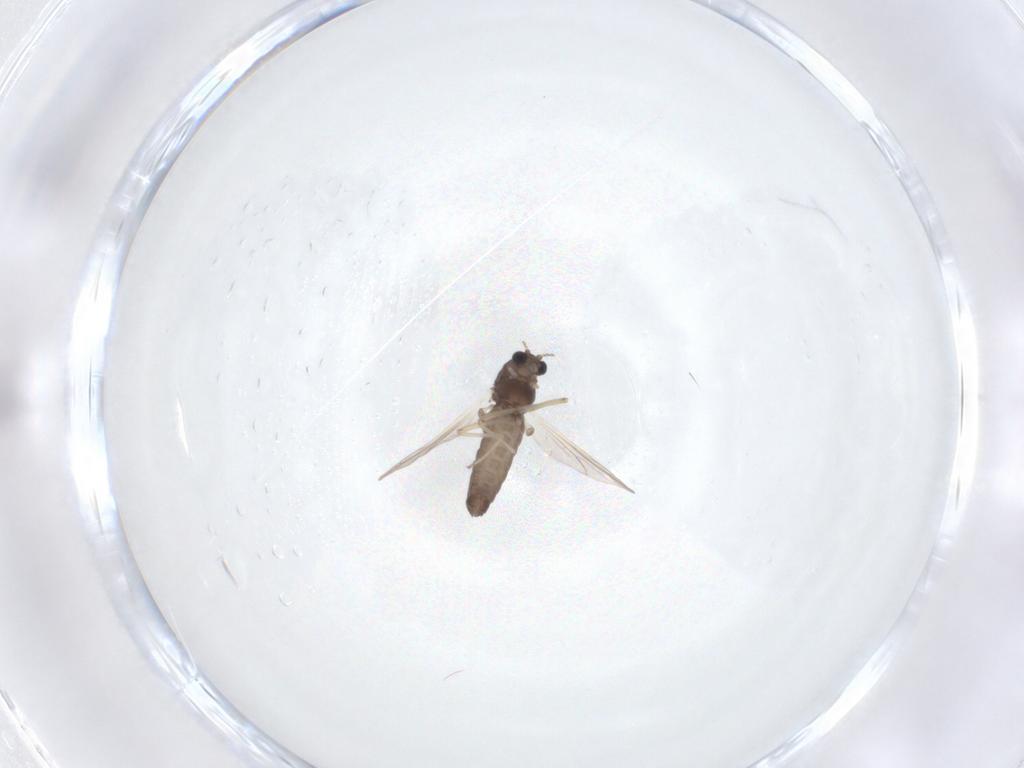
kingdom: Animalia
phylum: Arthropoda
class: Insecta
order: Diptera
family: Chironomidae
